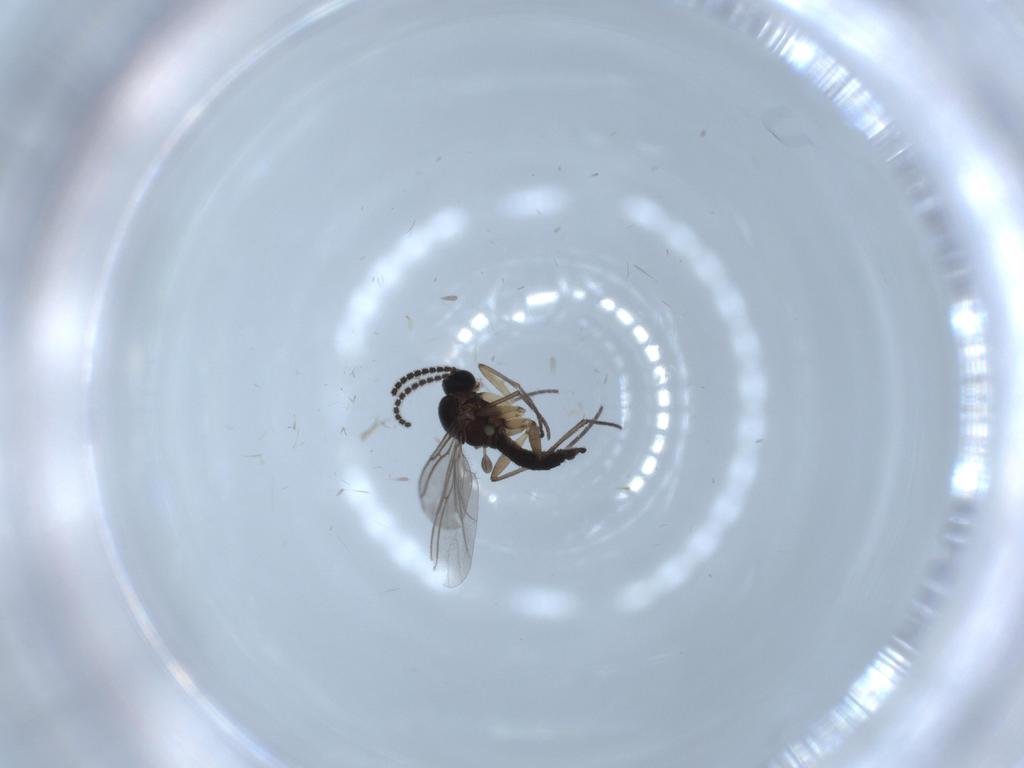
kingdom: Animalia
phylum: Arthropoda
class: Insecta
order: Diptera
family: Sciaridae
